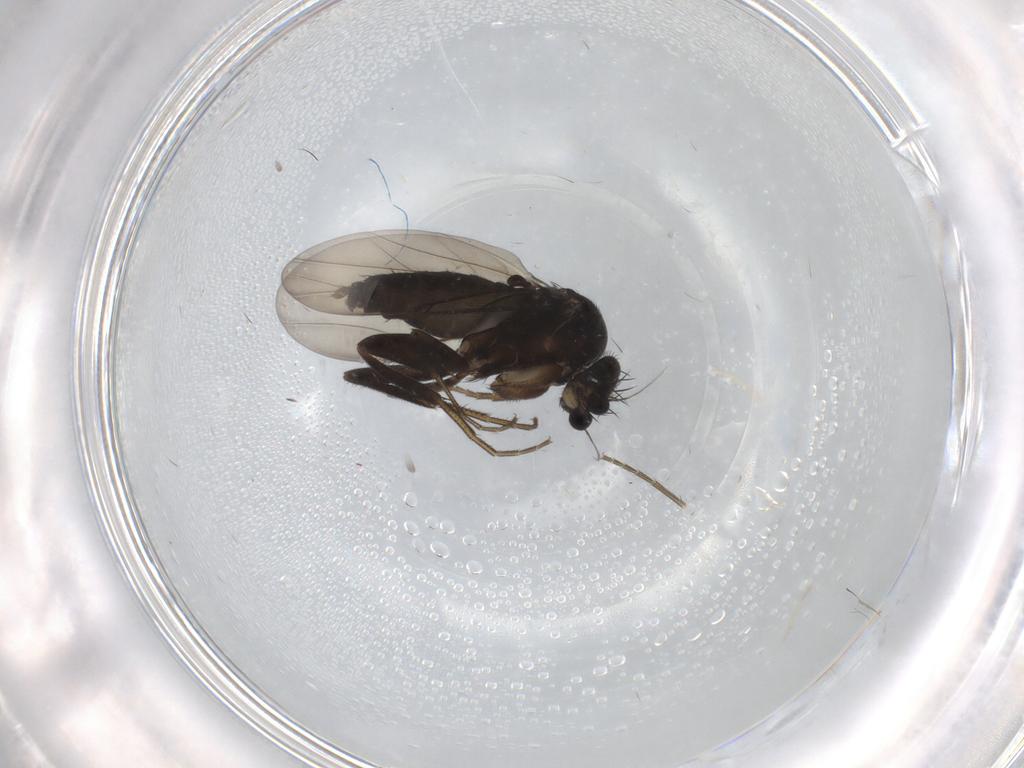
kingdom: Animalia
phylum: Arthropoda
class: Insecta
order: Diptera
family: Phoridae
